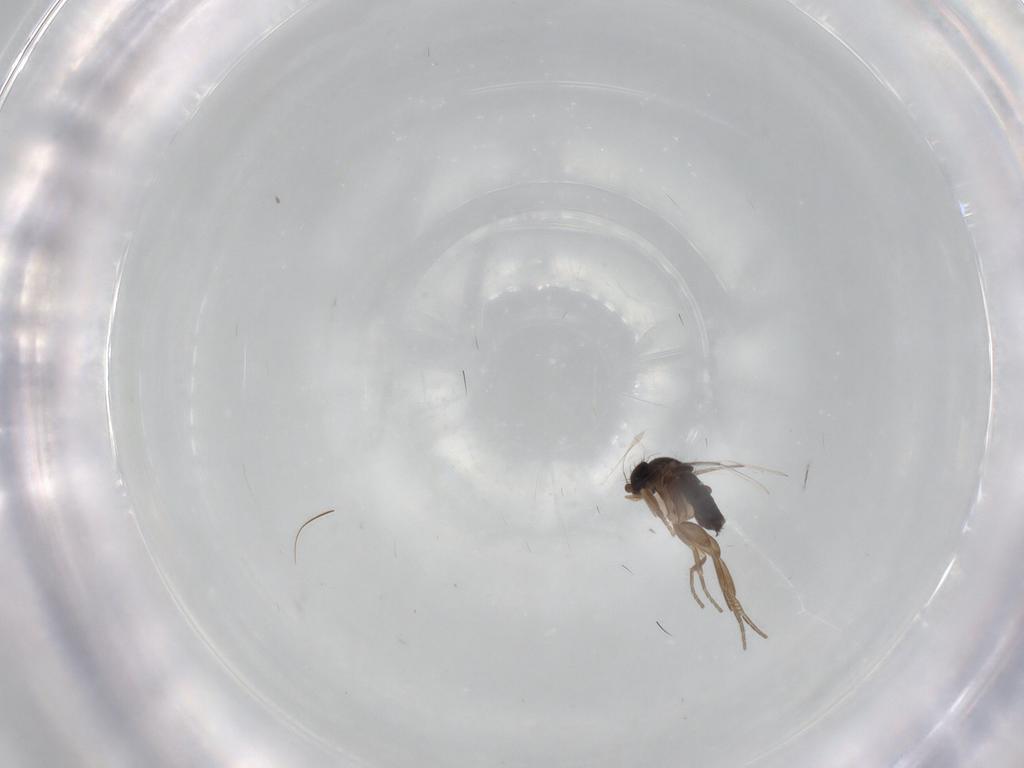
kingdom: Animalia
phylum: Arthropoda
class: Insecta
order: Diptera
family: Phoridae
